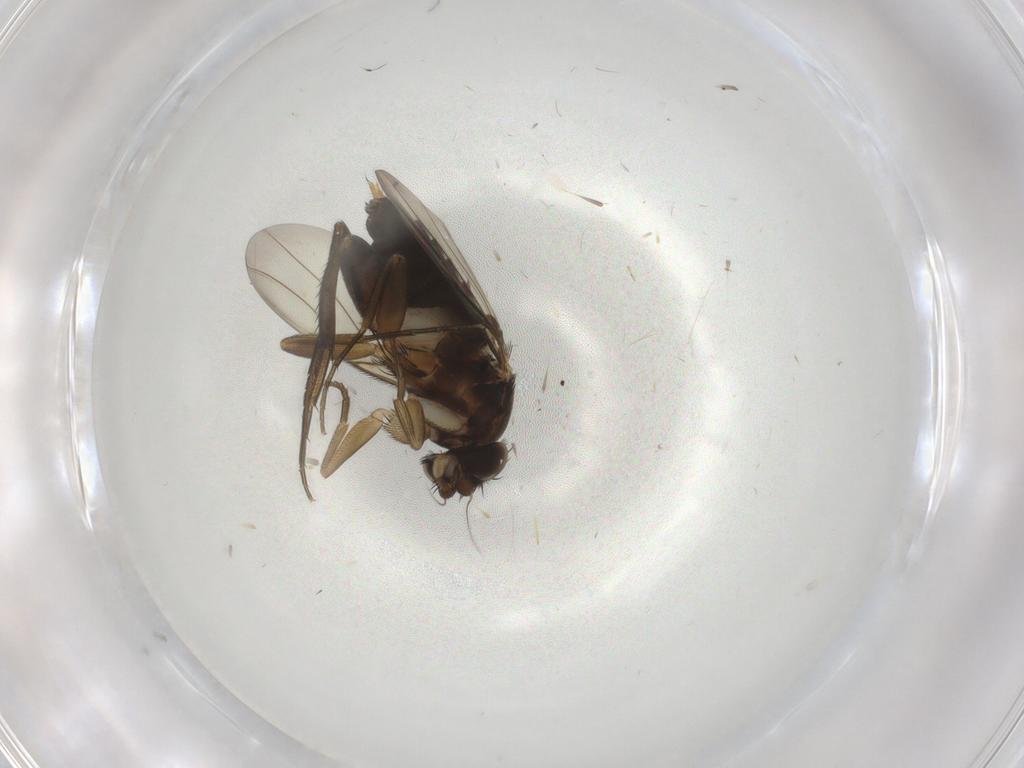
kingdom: Animalia
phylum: Arthropoda
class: Insecta
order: Diptera
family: Phoridae
